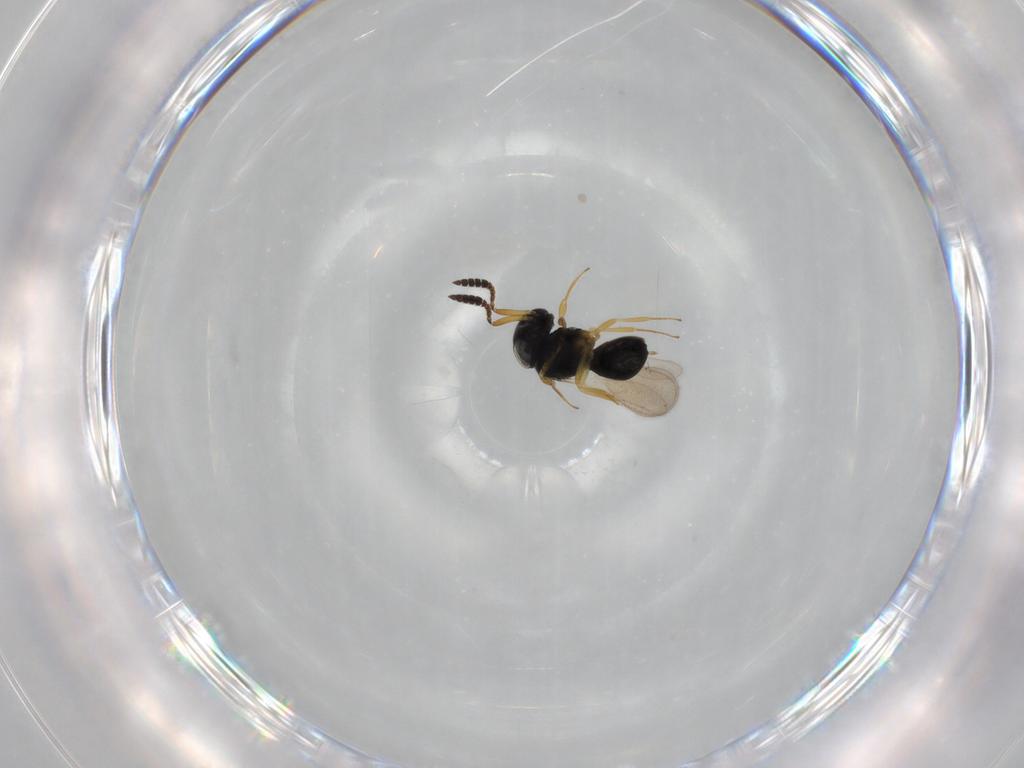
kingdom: Animalia
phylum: Arthropoda
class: Insecta
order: Hymenoptera
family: Scelionidae
